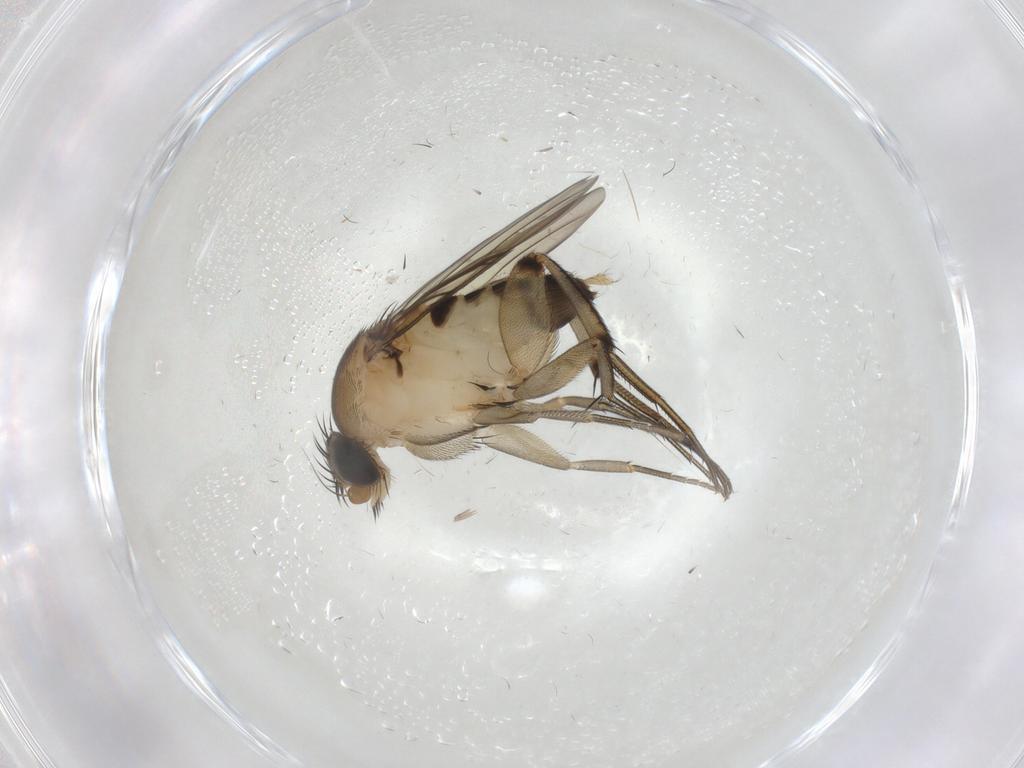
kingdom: Animalia
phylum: Arthropoda
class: Insecta
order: Diptera
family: Phoridae
